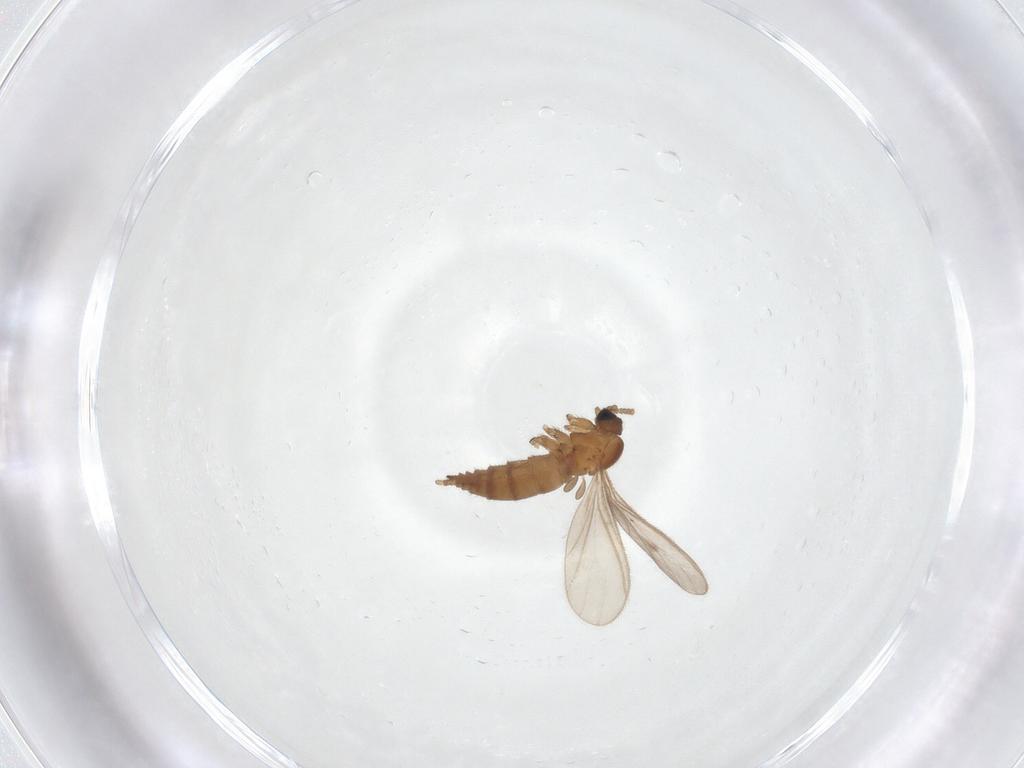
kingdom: Animalia
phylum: Arthropoda
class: Insecta
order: Diptera
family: Sciaridae
